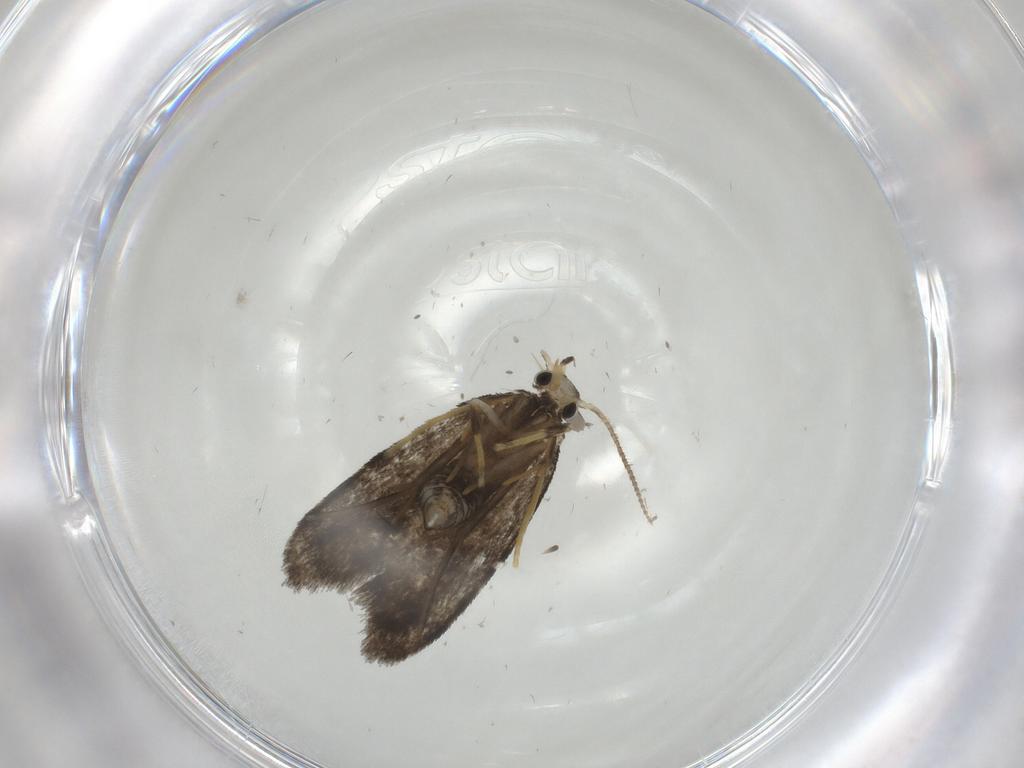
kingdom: Animalia
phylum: Arthropoda
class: Insecta
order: Lepidoptera
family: Psychidae
